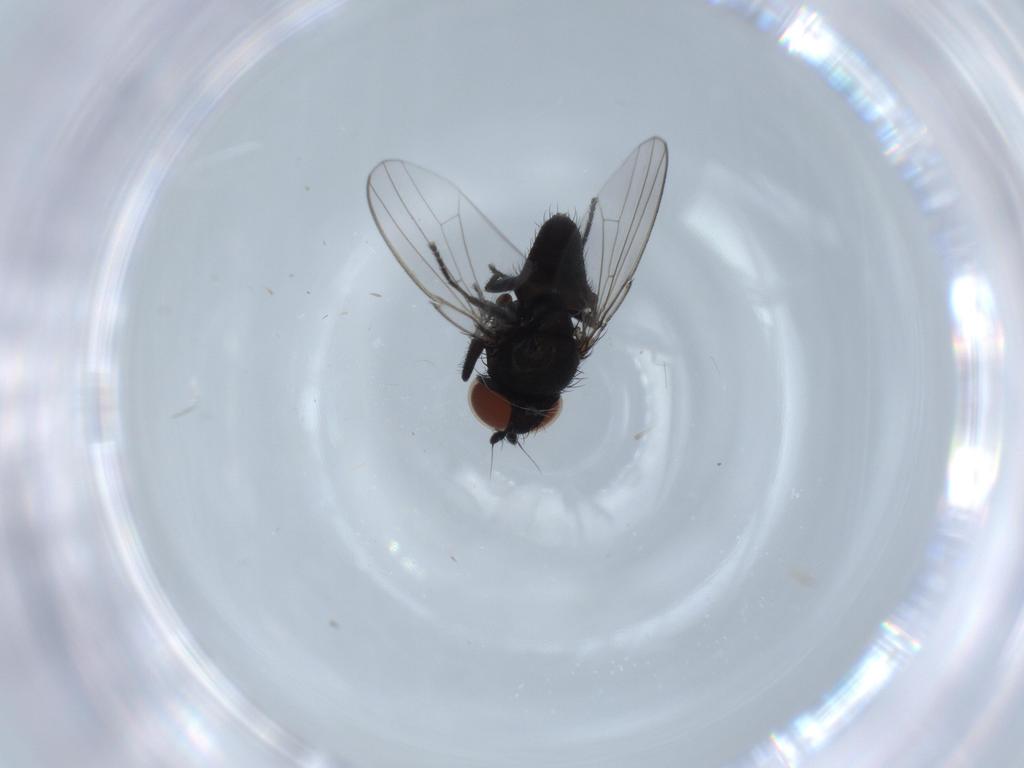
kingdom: Animalia
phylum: Arthropoda
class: Insecta
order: Diptera
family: Milichiidae
